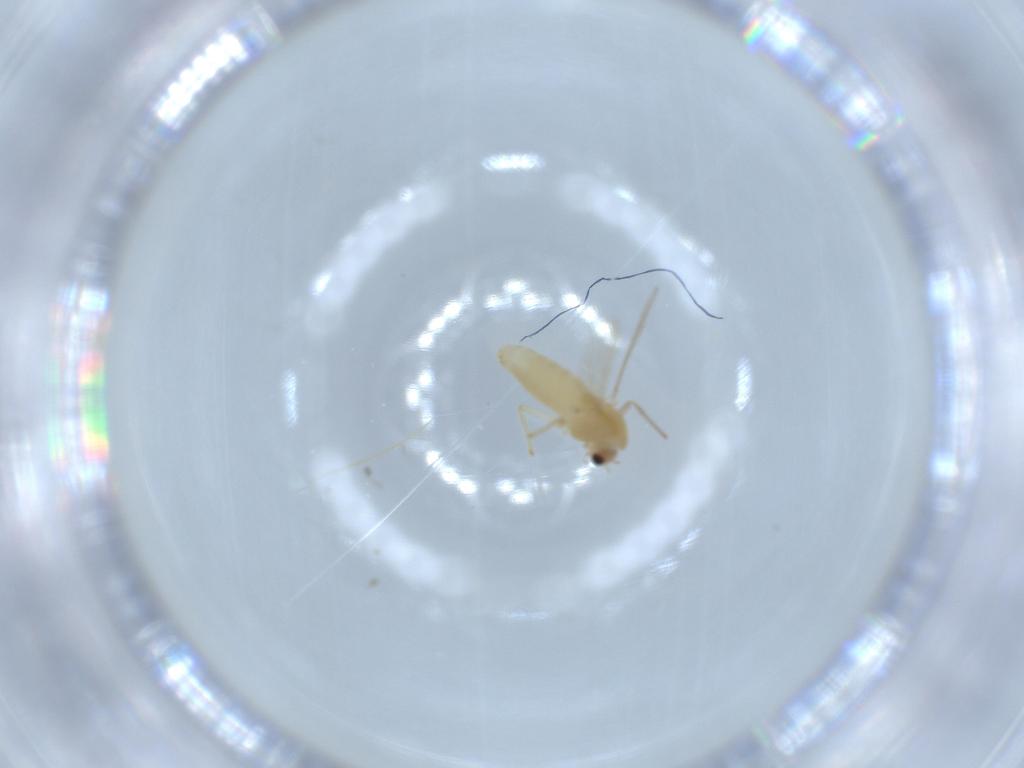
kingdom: Animalia
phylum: Arthropoda
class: Insecta
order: Diptera
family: Chironomidae
